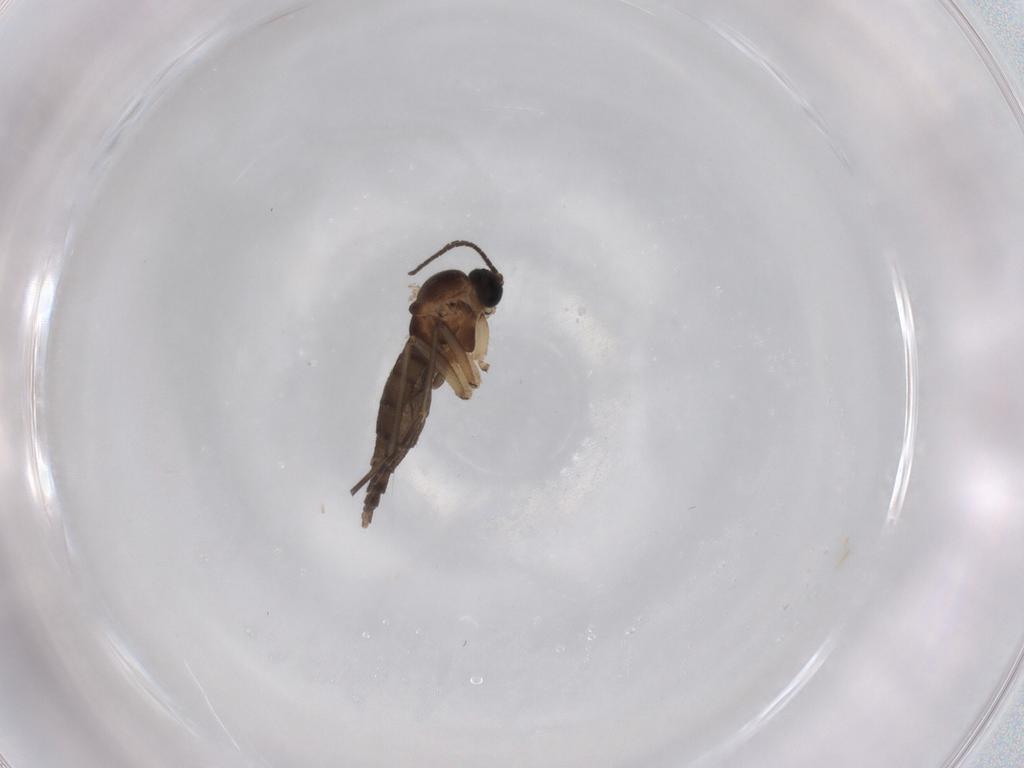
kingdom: Animalia
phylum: Arthropoda
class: Insecta
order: Diptera
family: Sciaridae
